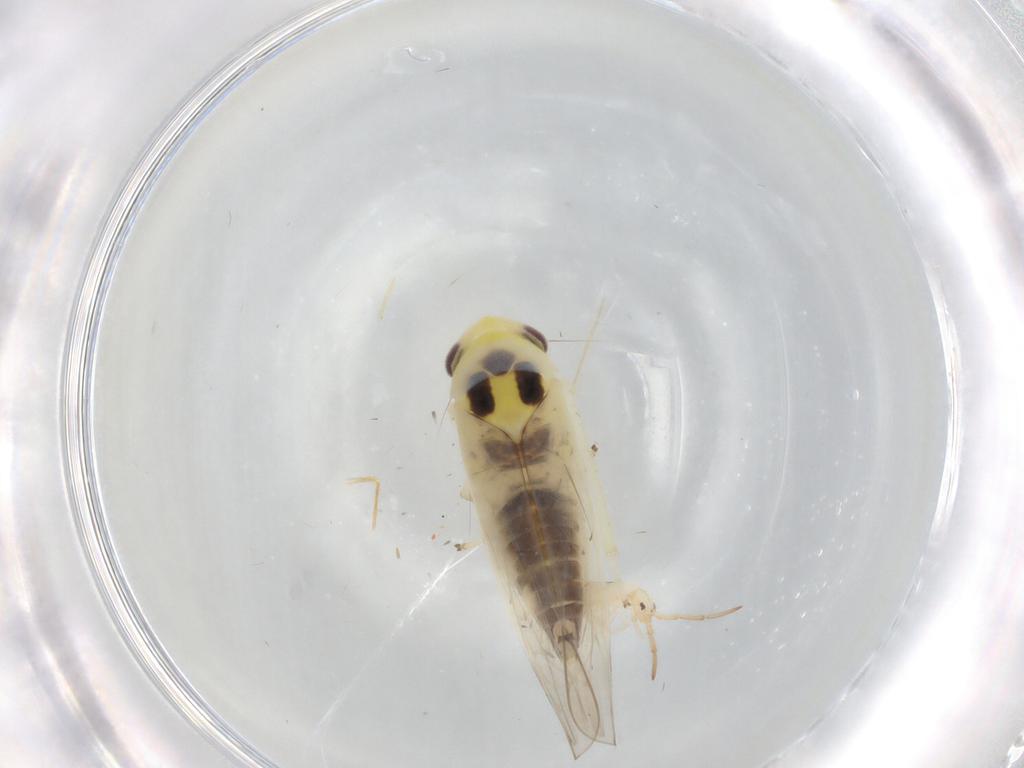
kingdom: Animalia
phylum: Arthropoda
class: Insecta
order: Hemiptera
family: Cicadellidae
